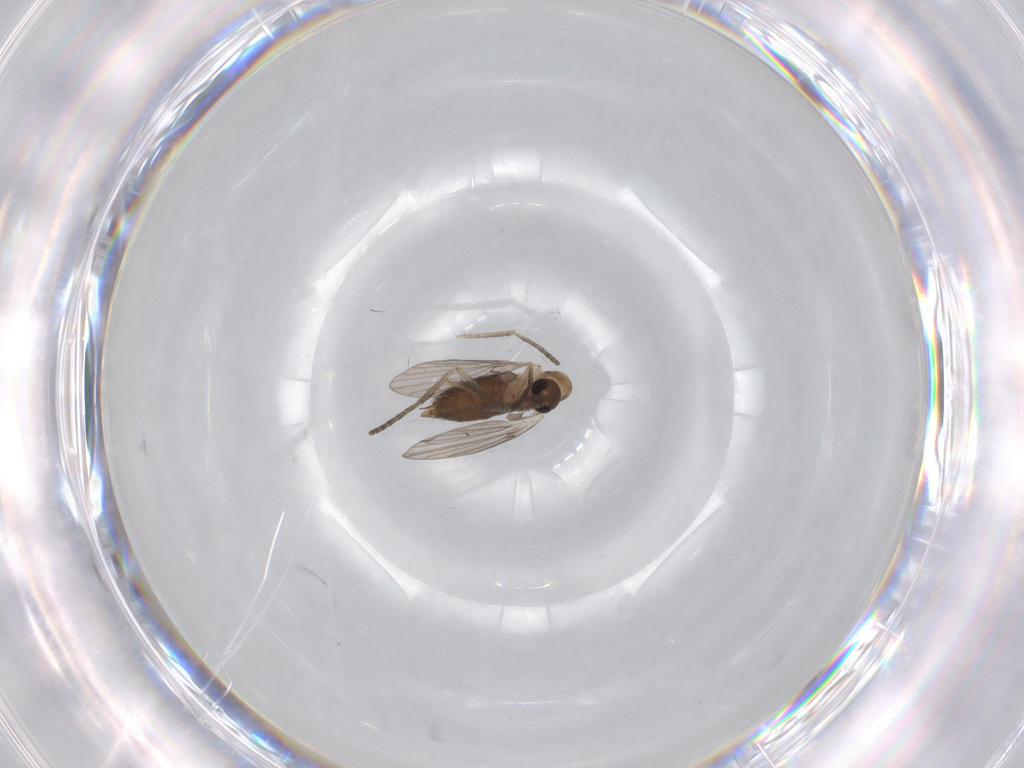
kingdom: Animalia
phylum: Arthropoda
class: Insecta
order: Diptera
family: Psychodidae
